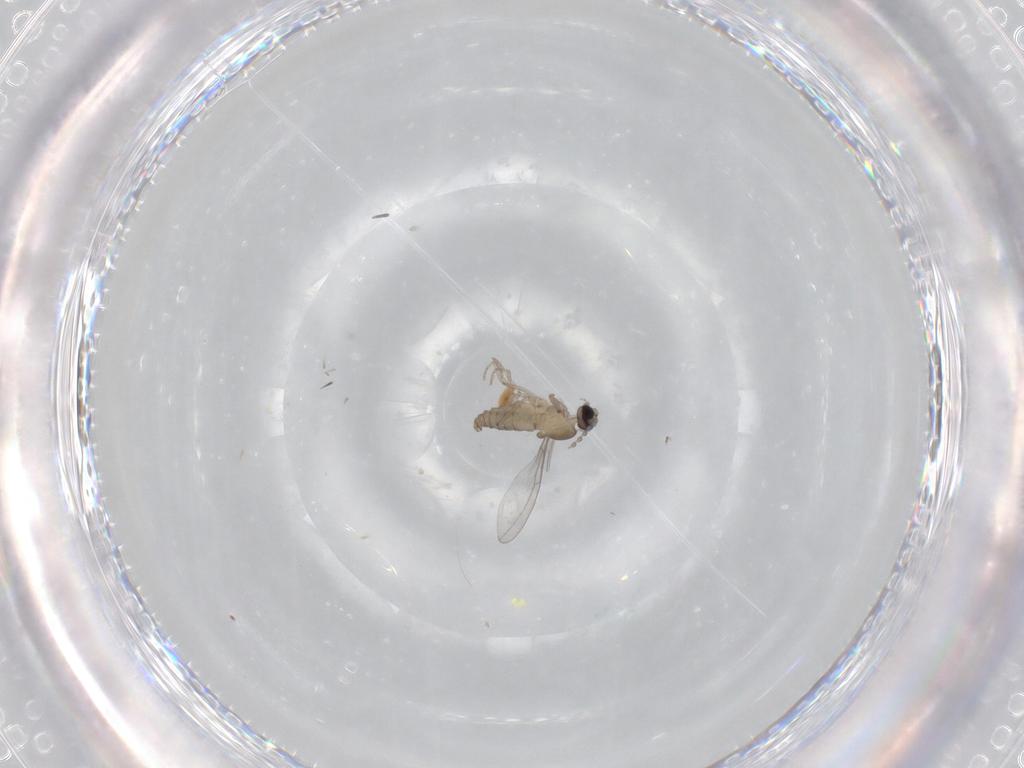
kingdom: Animalia
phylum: Arthropoda
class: Insecta
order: Diptera
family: Cecidomyiidae
